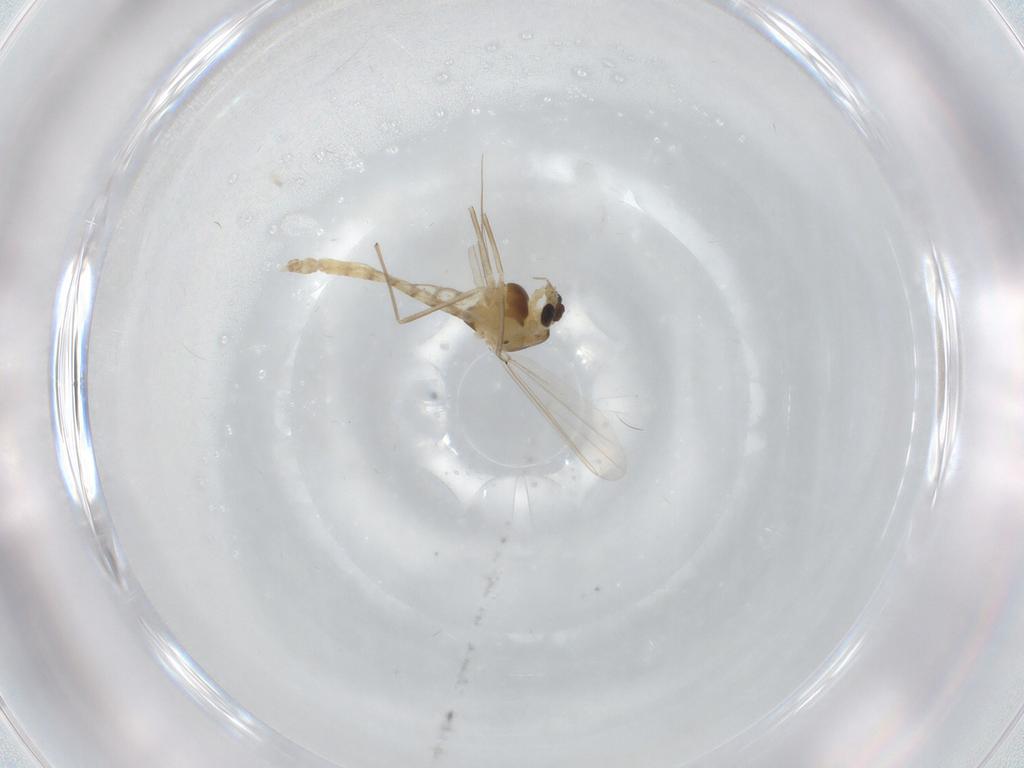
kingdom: Animalia
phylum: Arthropoda
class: Insecta
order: Diptera
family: Chironomidae
